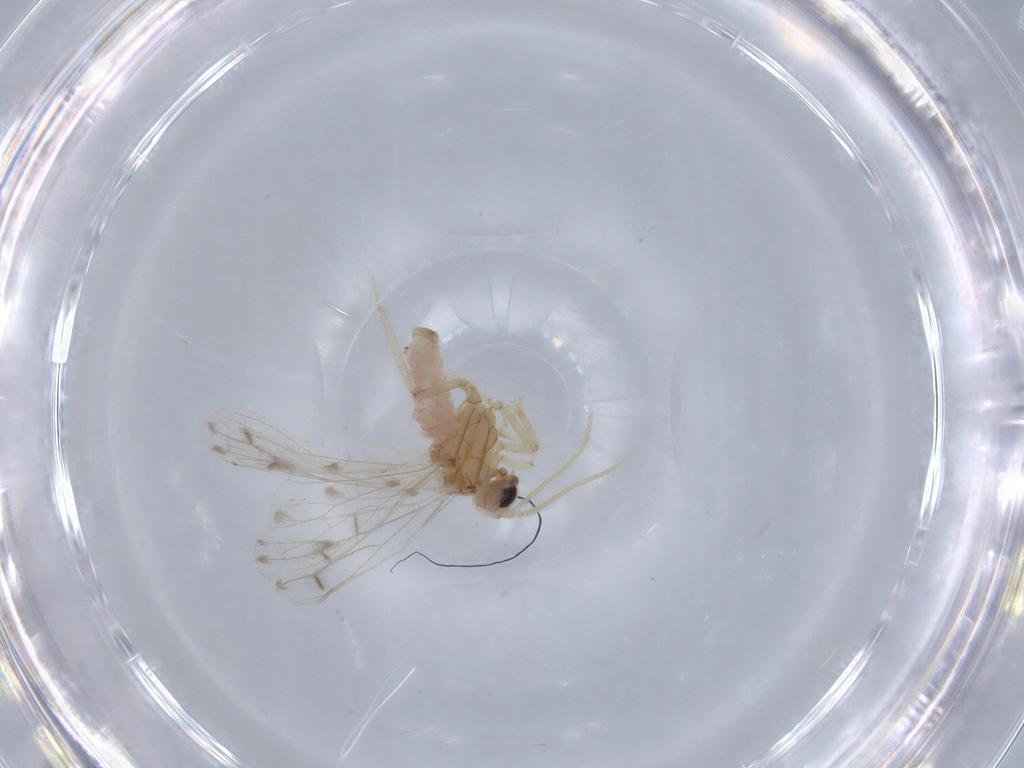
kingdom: Animalia
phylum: Arthropoda
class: Insecta
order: Neuroptera
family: Coniopterygidae
